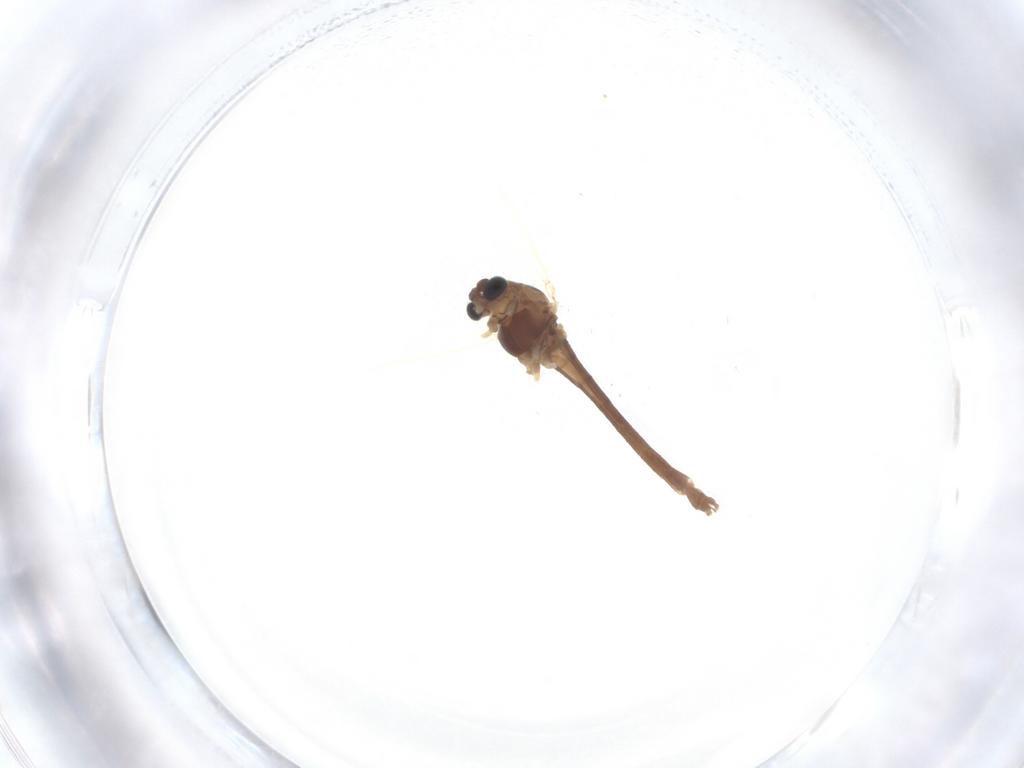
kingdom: Animalia
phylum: Arthropoda
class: Insecta
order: Diptera
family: Chironomidae
